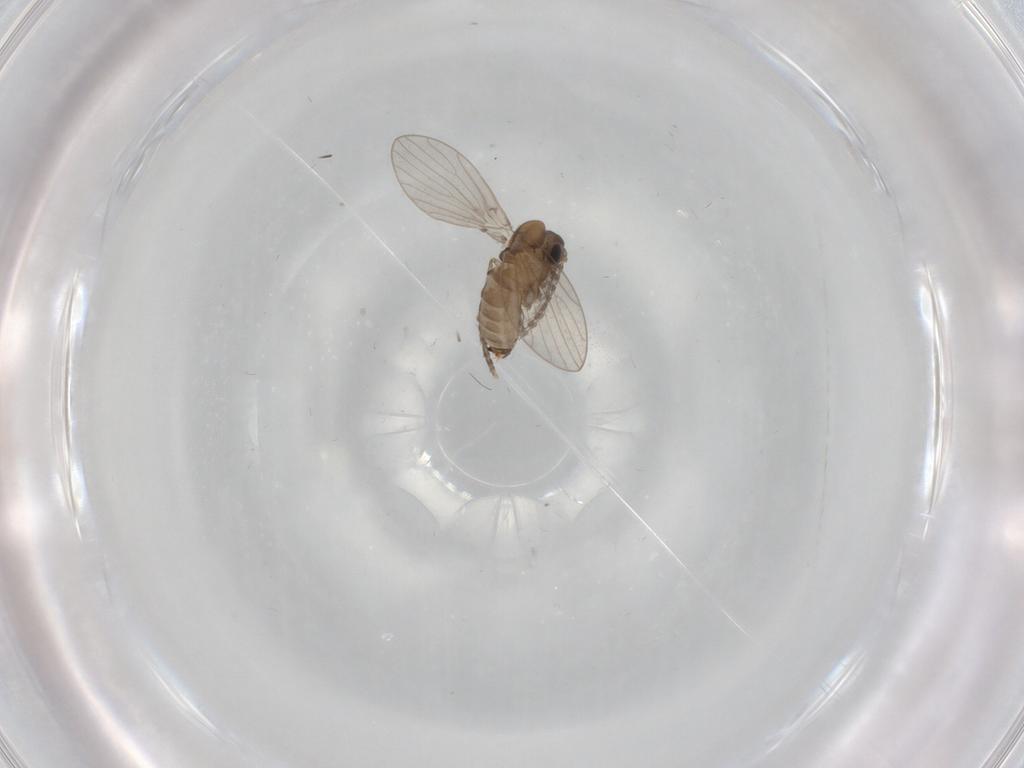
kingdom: Animalia
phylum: Arthropoda
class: Insecta
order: Diptera
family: Psychodidae
